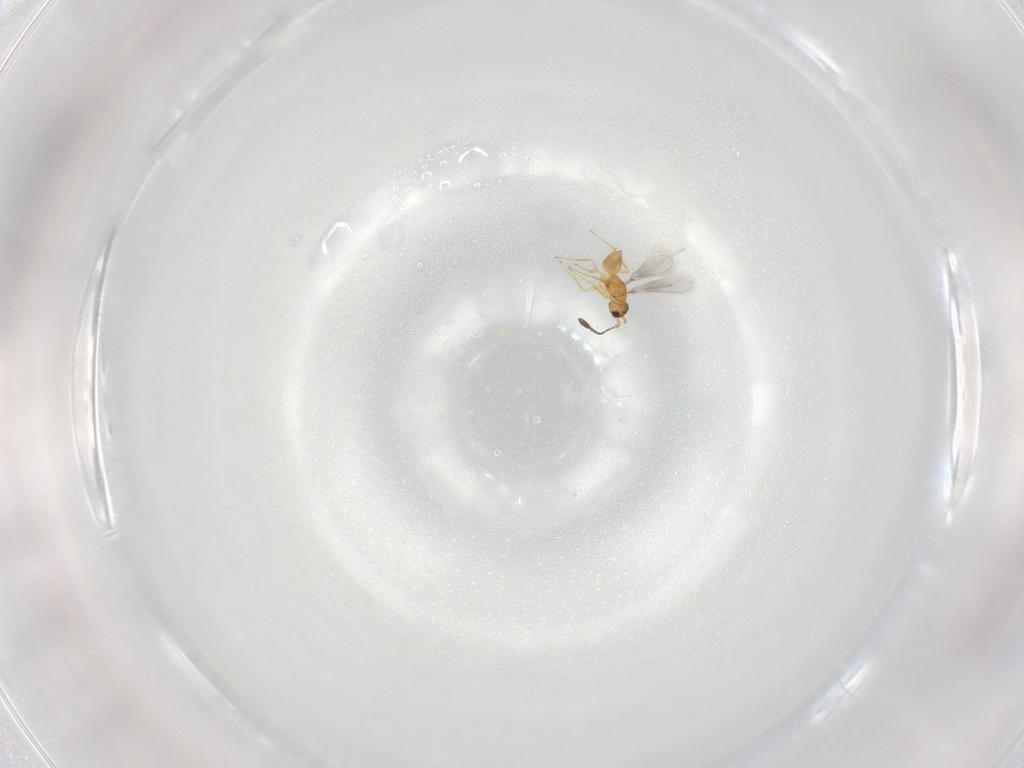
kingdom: Animalia
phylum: Arthropoda
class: Insecta
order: Hymenoptera
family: Mymaridae
